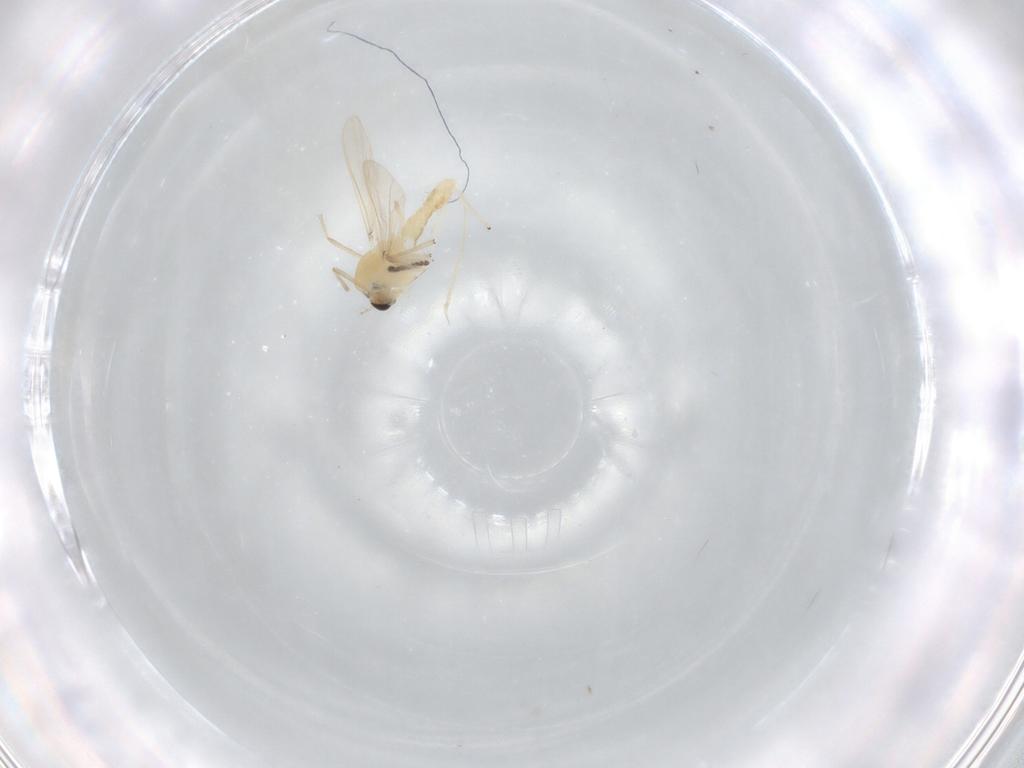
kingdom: Animalia
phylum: Arthropoda
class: Insecta
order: Diptera
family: Chironomidae
